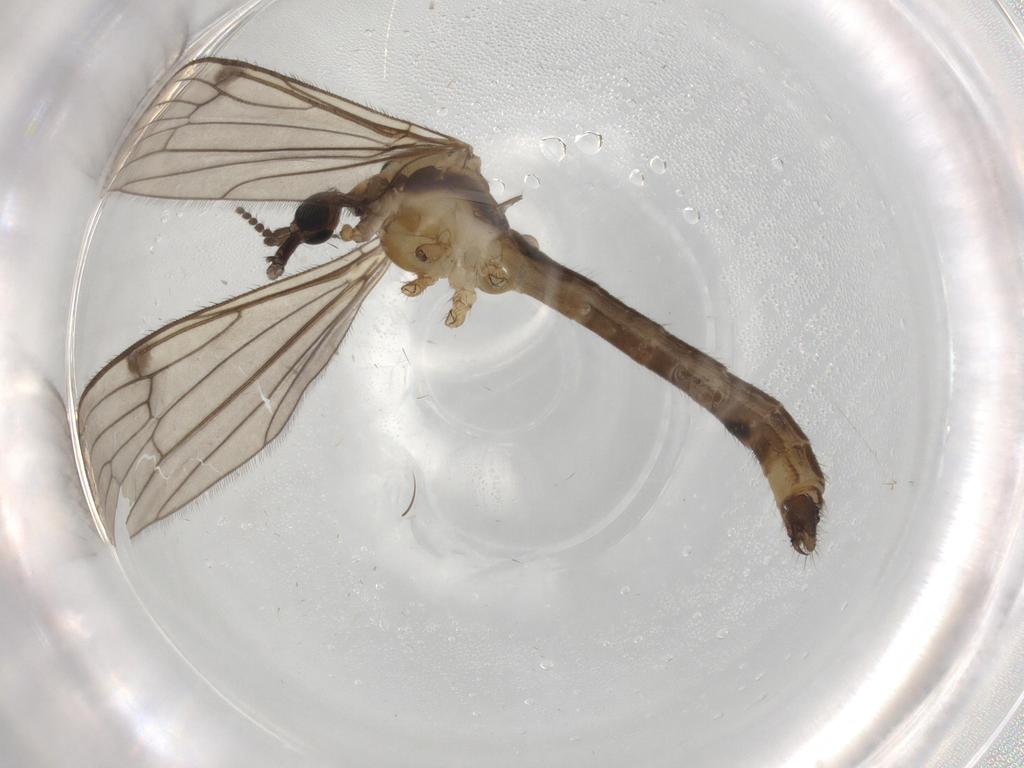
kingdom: Animalia
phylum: Arthropoda
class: Insecta
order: Diptera
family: Limoniidae
